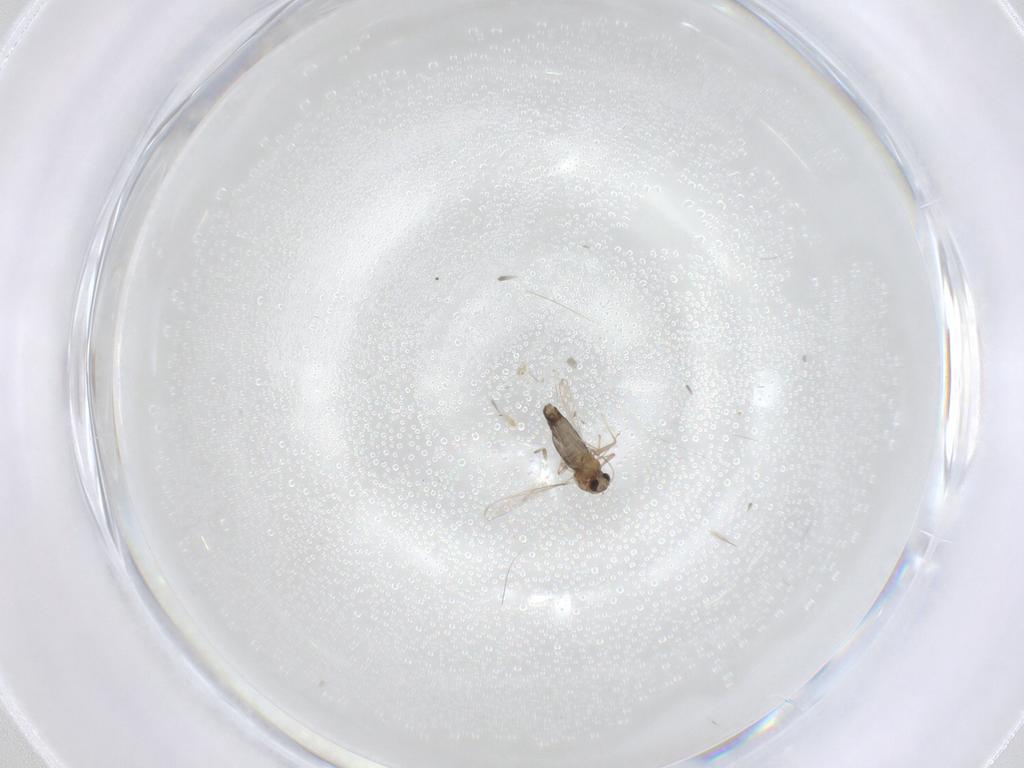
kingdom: Animalia
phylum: Arthropoda
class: Insecta
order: Diptera
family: Chironomidae
